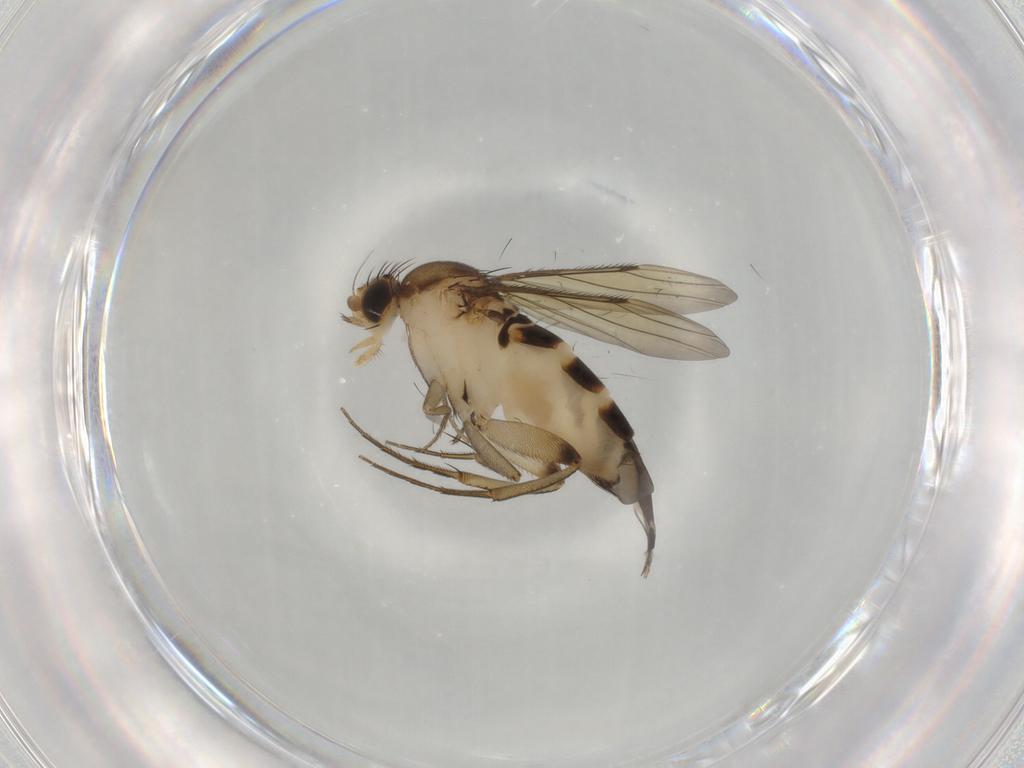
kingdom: Animalia
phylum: Arthropoda
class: Insecta
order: Diptera
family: Phoridae
